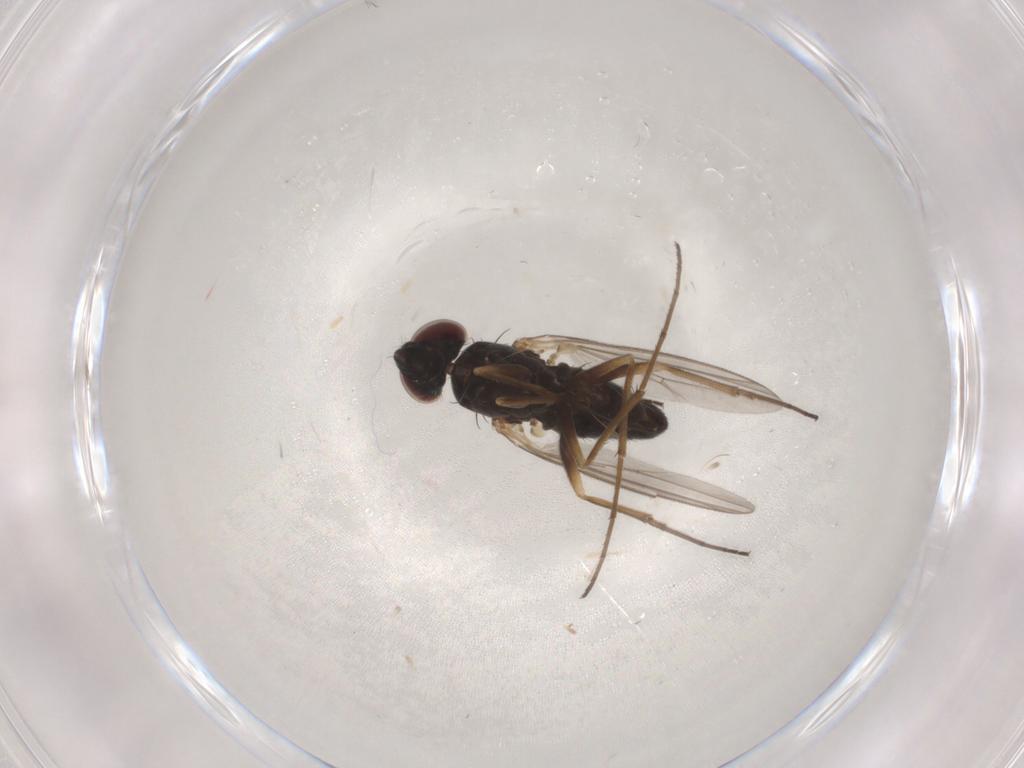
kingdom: Animalia
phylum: Arthropoda
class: Insecta
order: Diptera
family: Dolichopodidae
